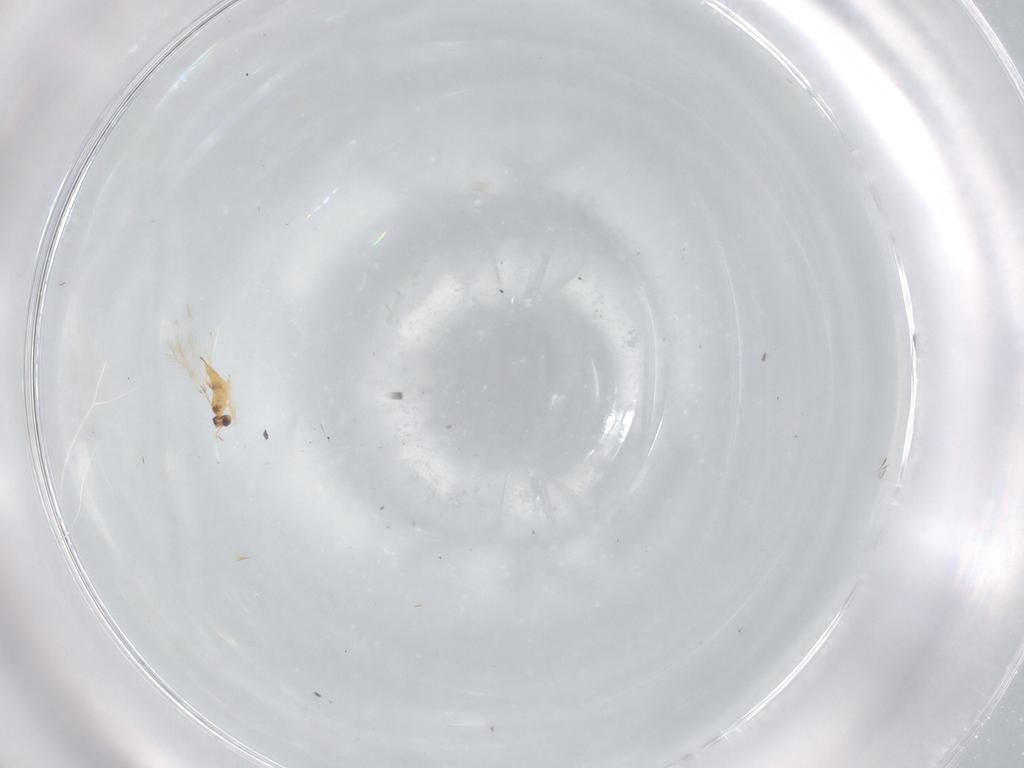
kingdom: Animalia
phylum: Arthropoda
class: Insecta
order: Hymenoptera
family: Mymaridae
